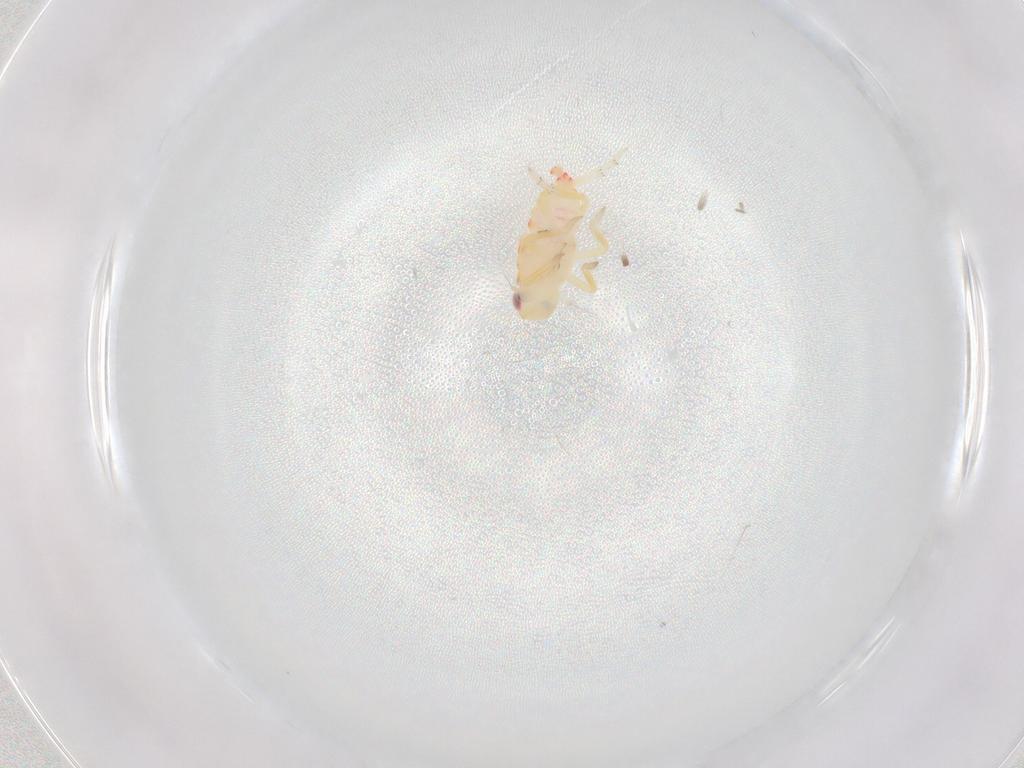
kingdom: Animalia
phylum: Arthropoda
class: Insecta
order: Hemiptera
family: Tropiduchidae
